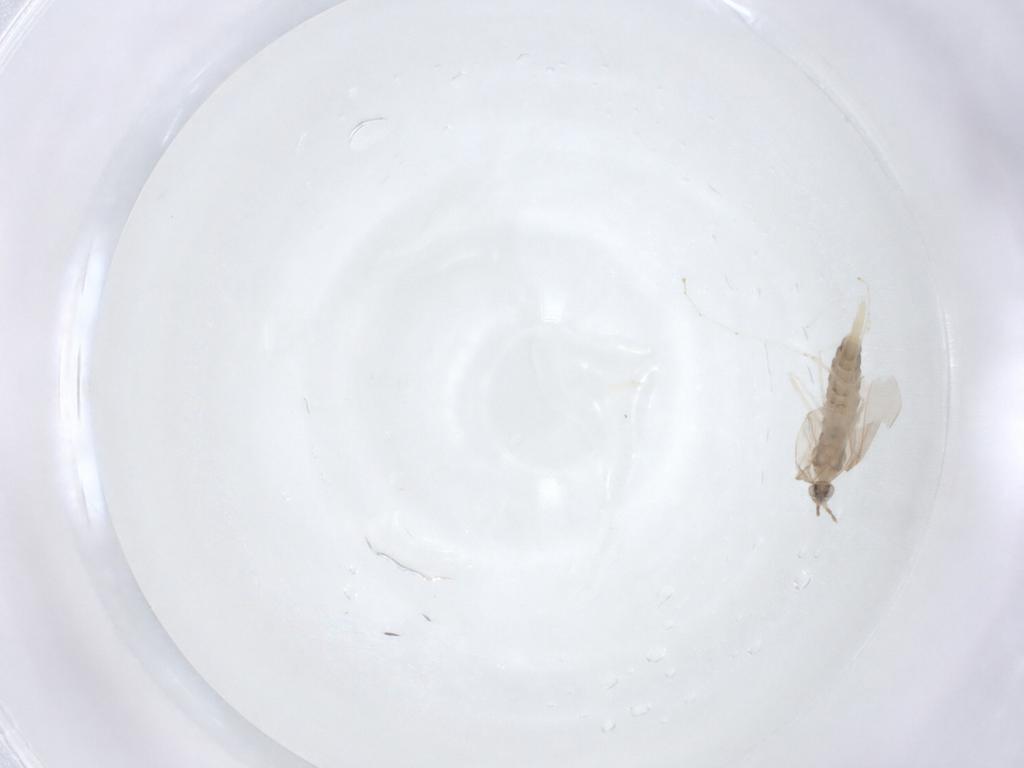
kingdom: Animalia
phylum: Arthropoda
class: Insecta
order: Diptera
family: Cecidomyiidae
